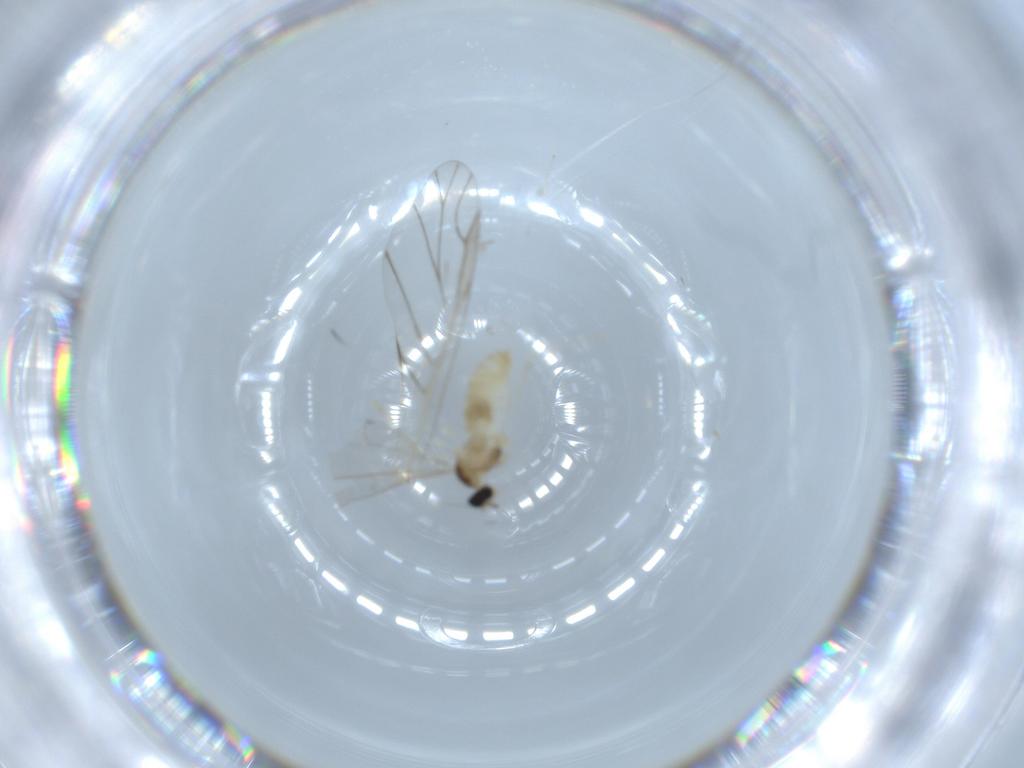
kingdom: Animalia
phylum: Arthropoda
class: Insecta
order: Diptera
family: Cecidomyiidae
